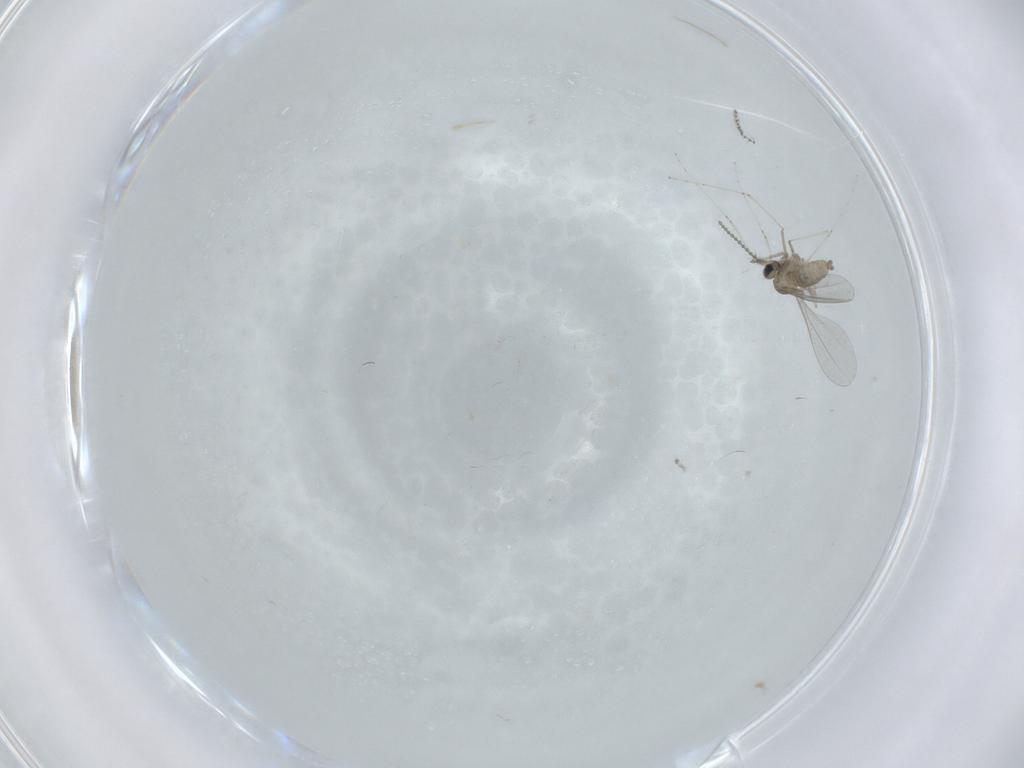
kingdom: Animalia
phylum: Arthropoda
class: Insecta
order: Diptera
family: Cecidomyiidae
